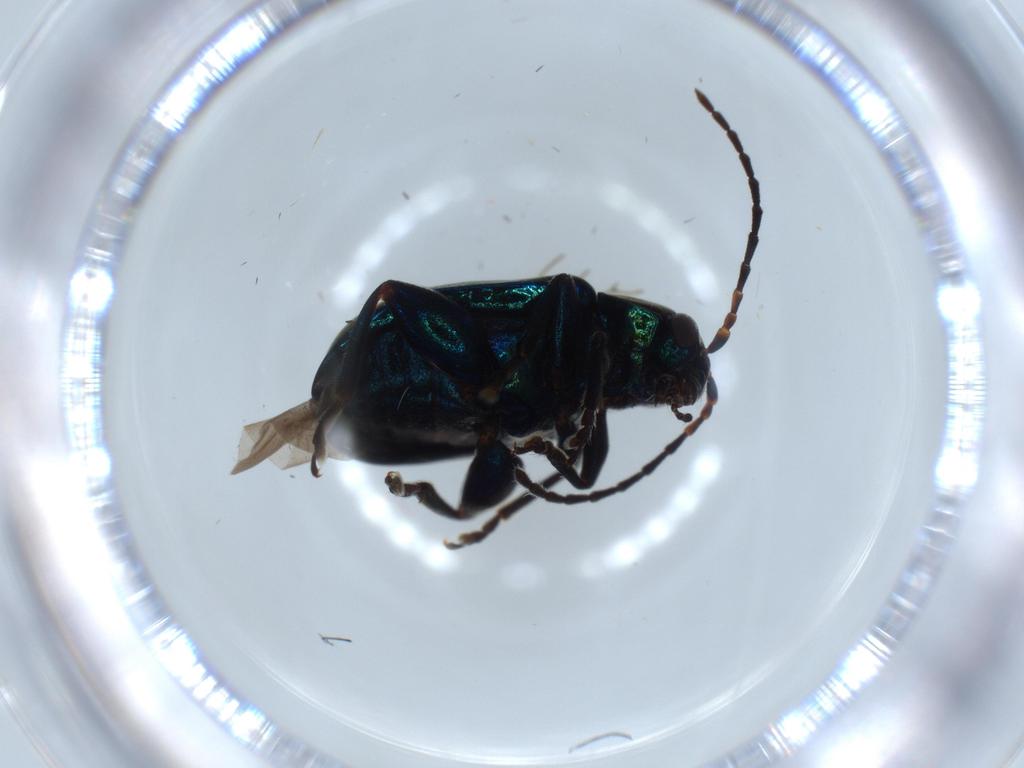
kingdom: Animalia
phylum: Arthropoda
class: Insecta
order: Coleoptera
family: Chrysomelidae
